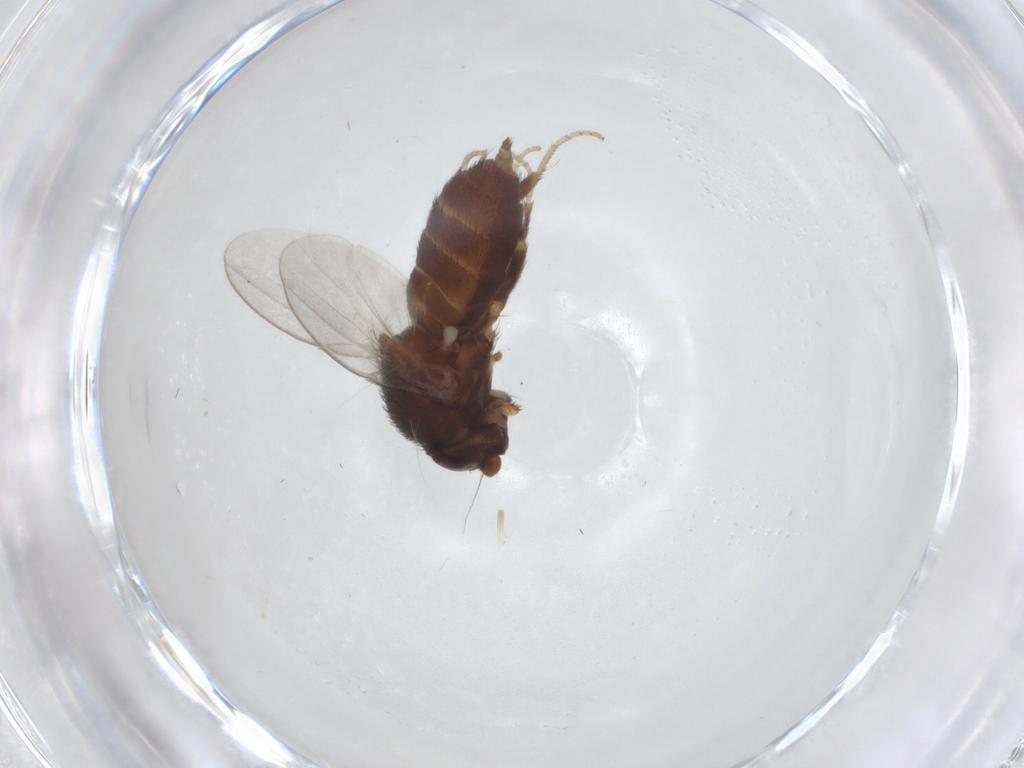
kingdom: Animalia
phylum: Arthropoda
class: Insecta
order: Diptera
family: Milichiidae
